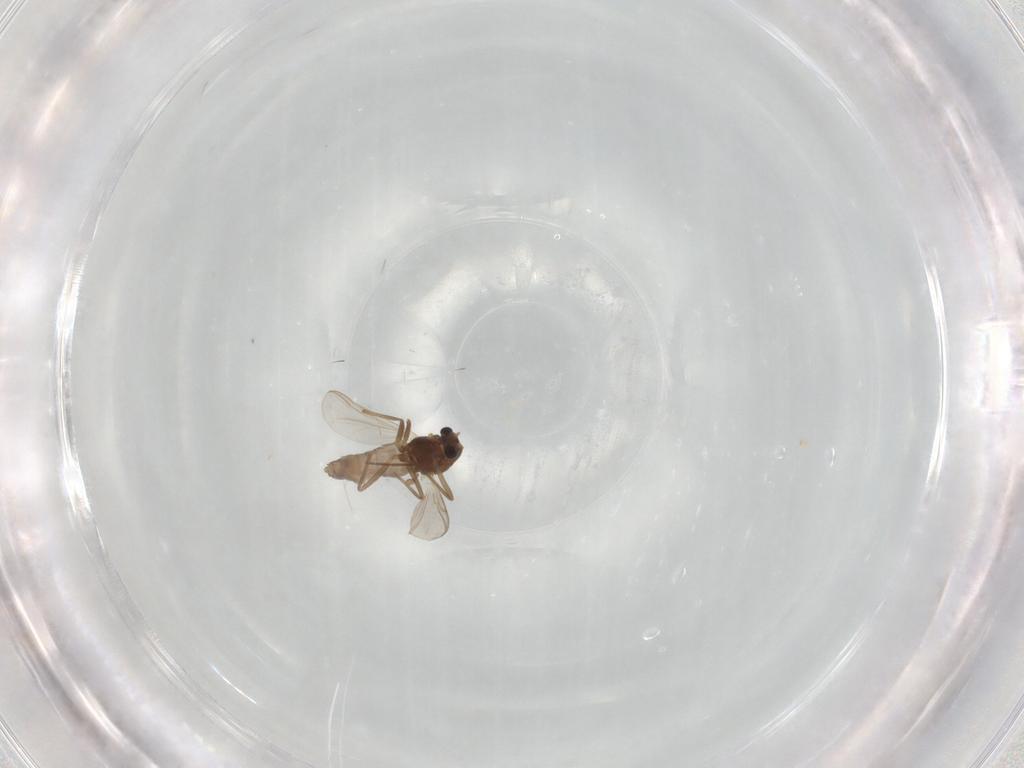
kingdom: Animalia
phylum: Arthropoda
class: Insecta
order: Diptera
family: Chironomidae
